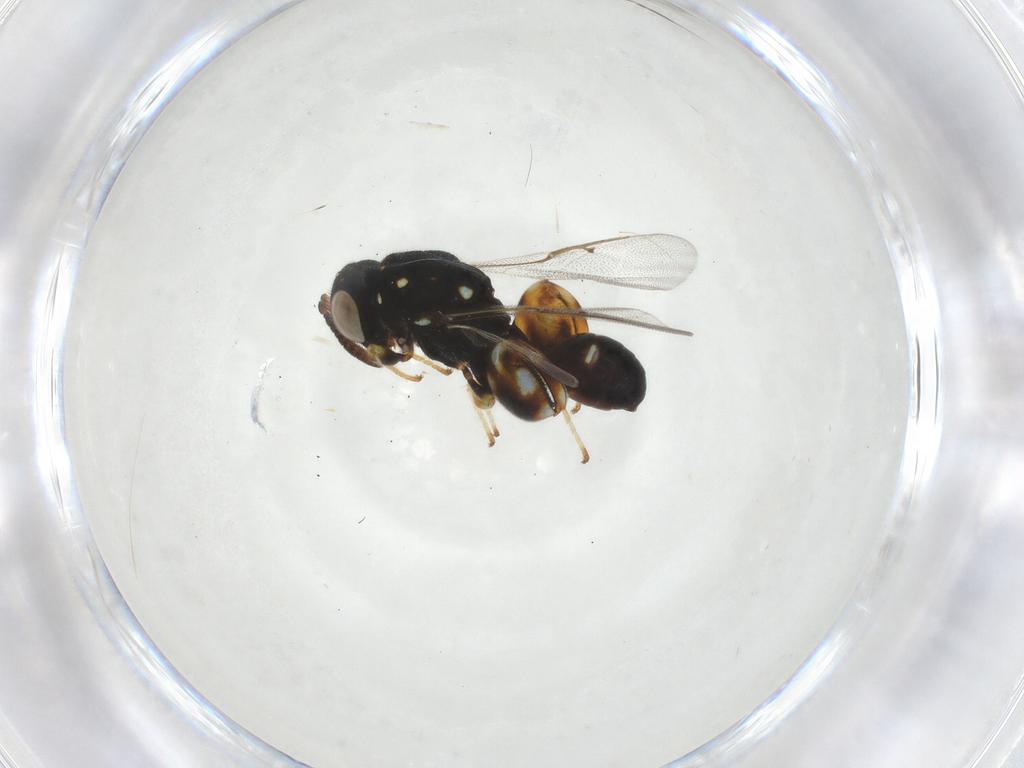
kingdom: Animalia
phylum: Arthropoda
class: Insecta
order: Hymenoptera
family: Chalcididae
